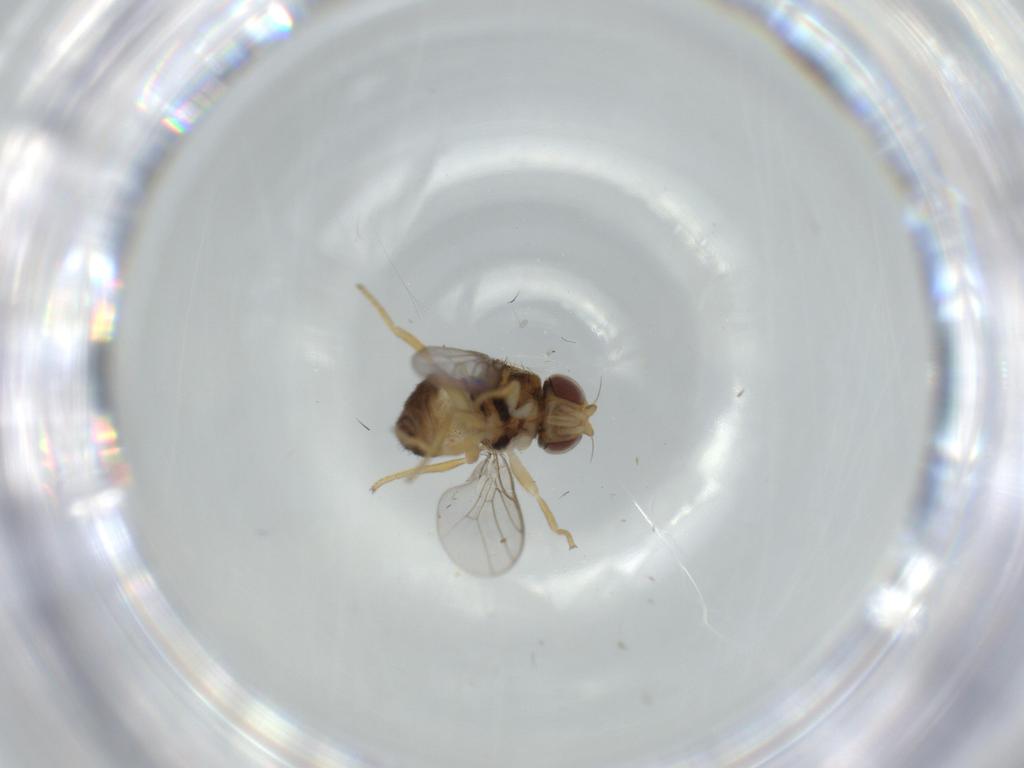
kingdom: Animalia
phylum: Arthropoda
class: Insecta
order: Diptera
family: Chloropidae
